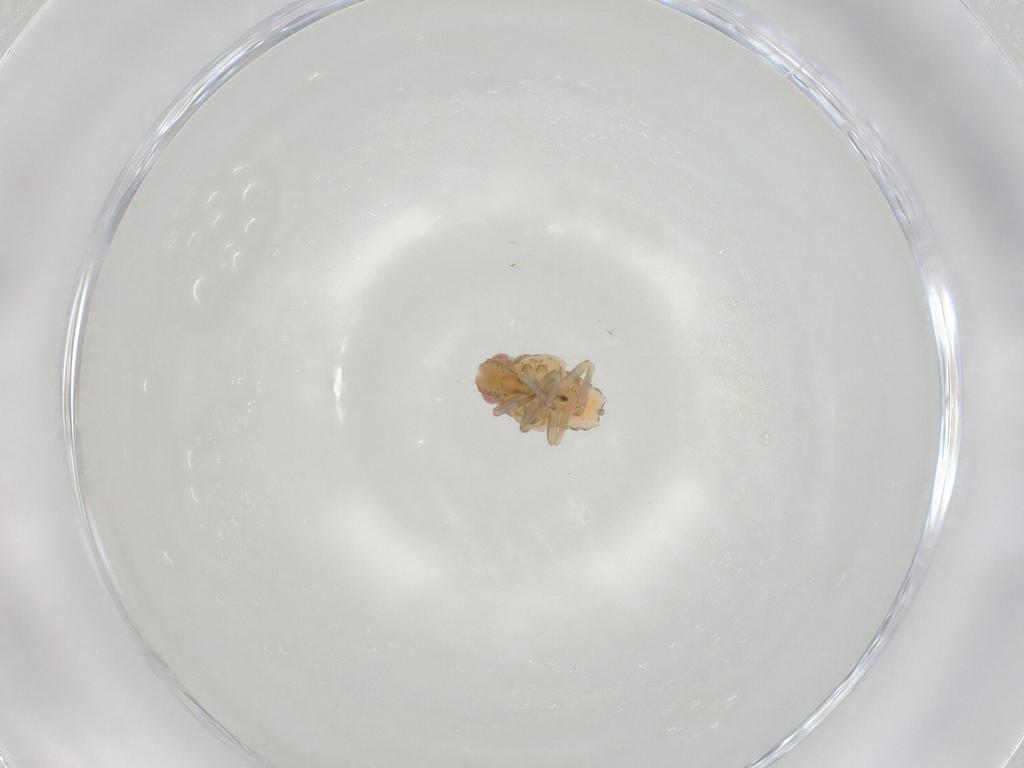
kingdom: Animalia
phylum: Arthropoda
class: Insecta
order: Hemiptera
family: Tropiduchidae
